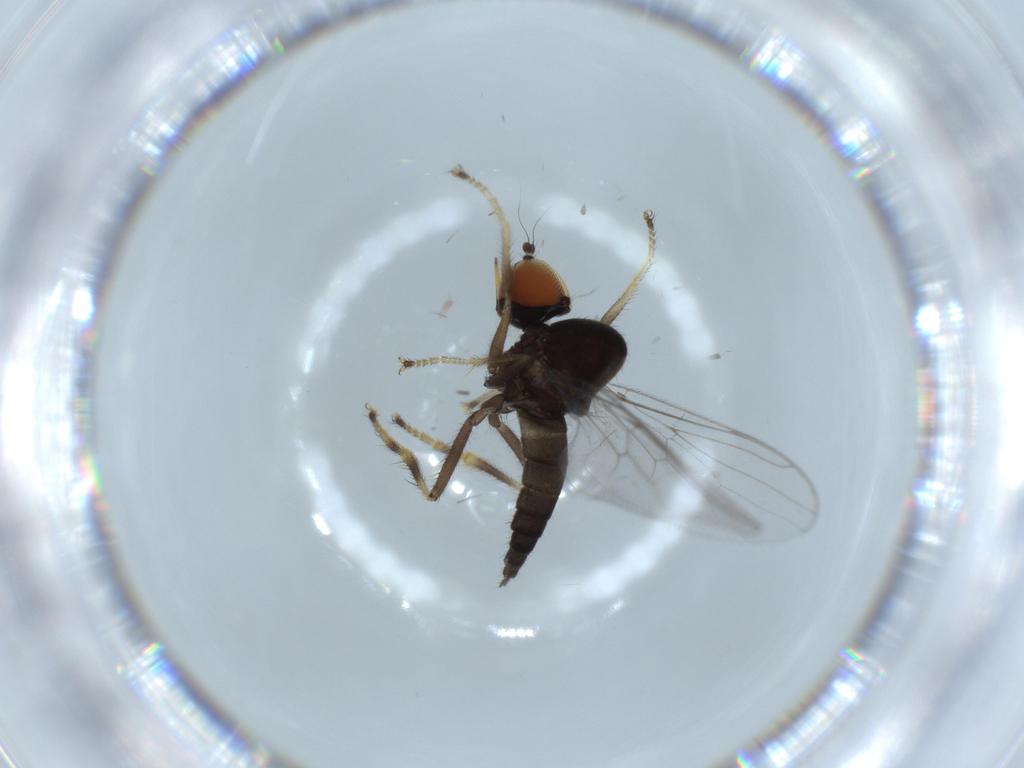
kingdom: Animalia
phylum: Arthropoda
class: Insecta
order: Diptera
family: Hybotidae
